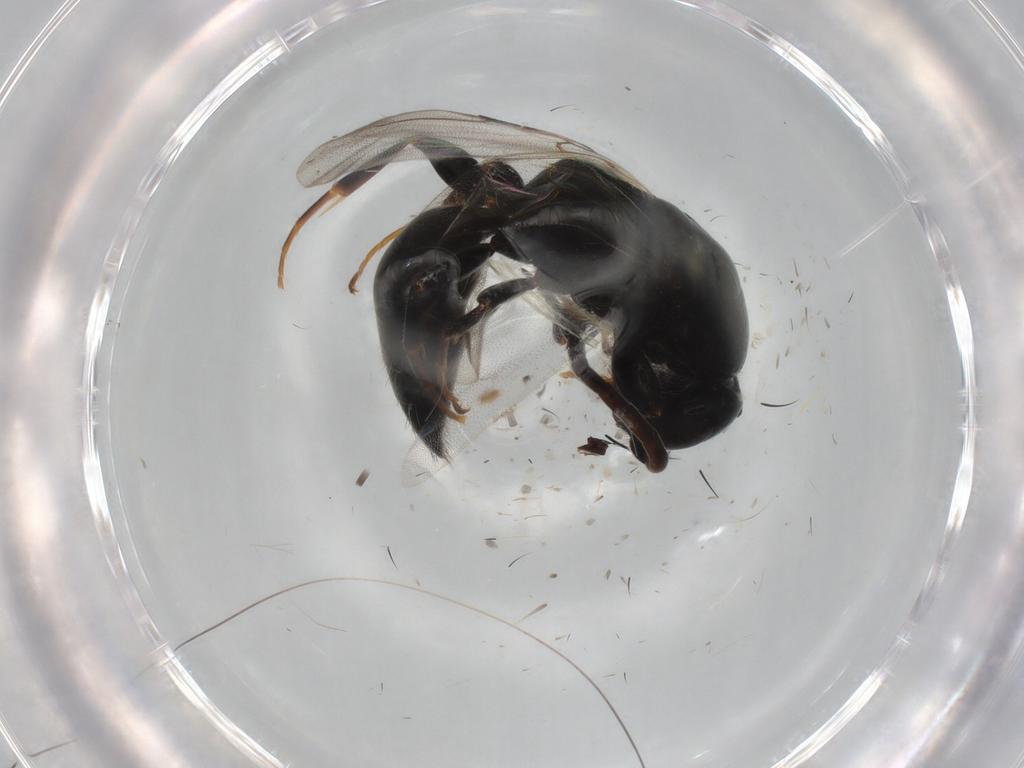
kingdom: Animalia
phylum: Arthropoda
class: Insecta
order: Hymenoptera
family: Bethylidae
